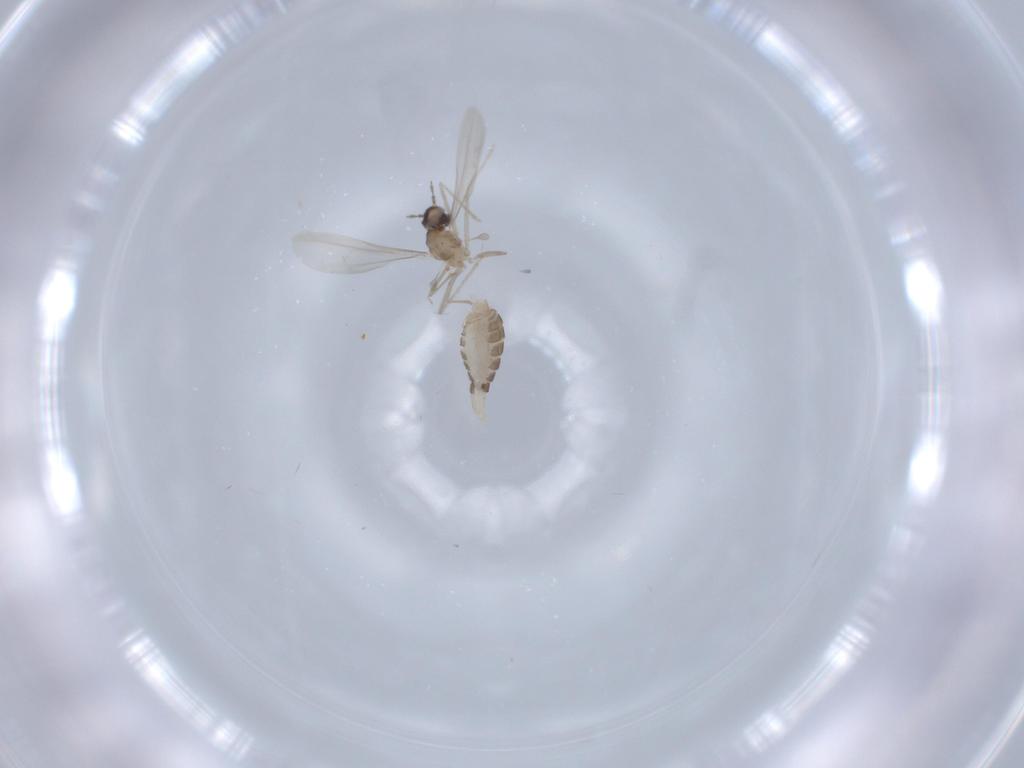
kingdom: Animalia
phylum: Arthropoda
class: Insecta
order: Diptera
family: Cecidomyiidae
